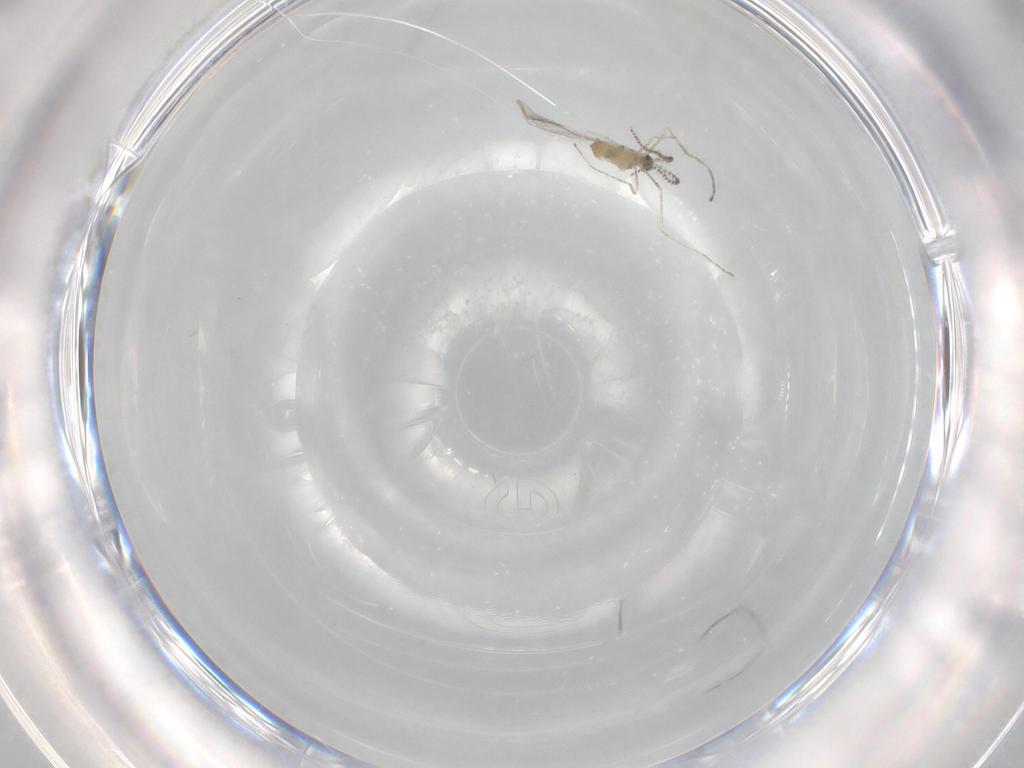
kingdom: Animalia
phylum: Arthropoda
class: Insecta
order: Diptera
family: Cecidomyiidae
